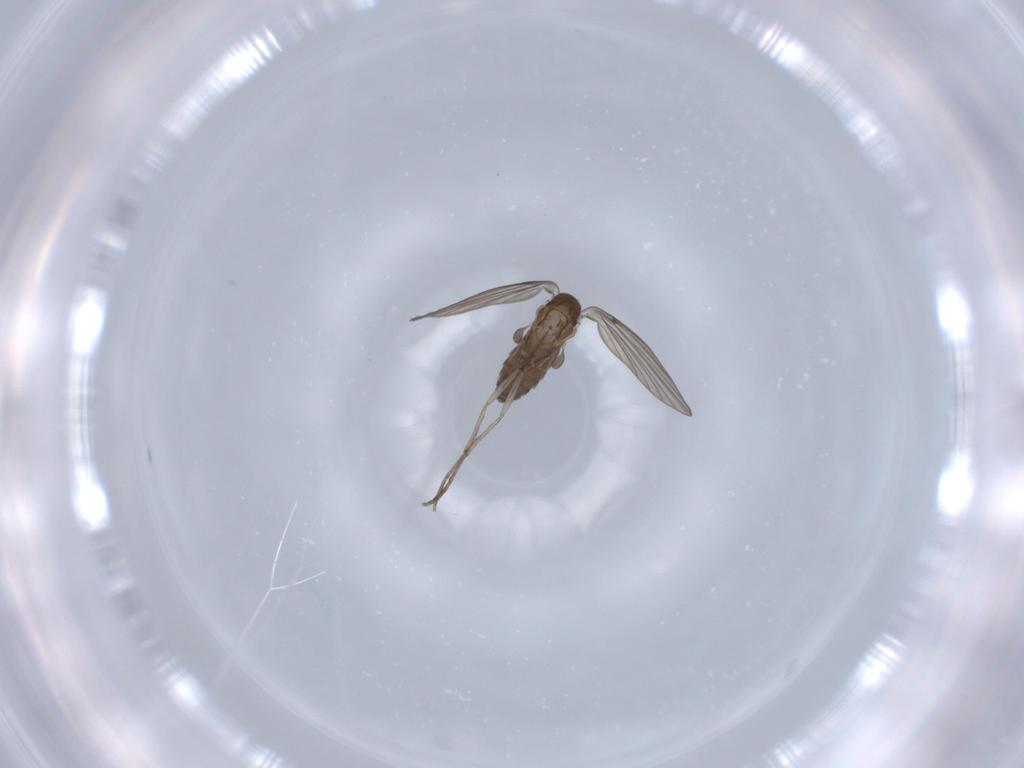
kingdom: Animalia
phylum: Arthropoda
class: Insecta
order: Diptera
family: Psychodidae
